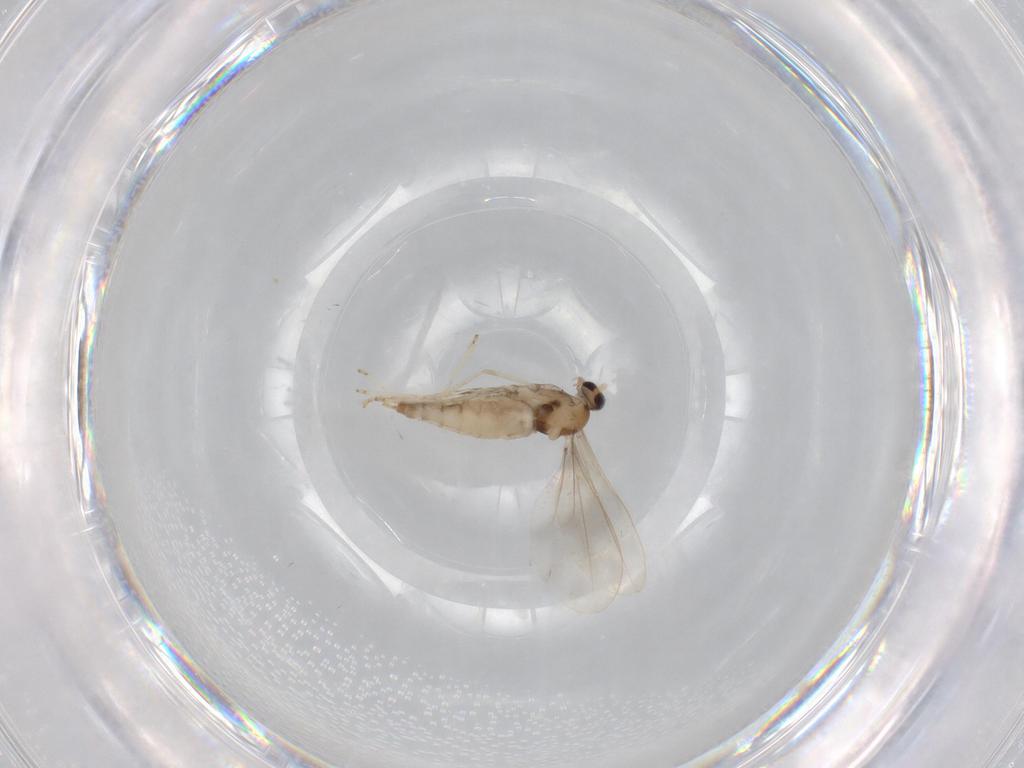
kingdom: Animalia
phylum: Arthropoda
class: Insecta
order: Diptera
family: Cecidomyiidae
